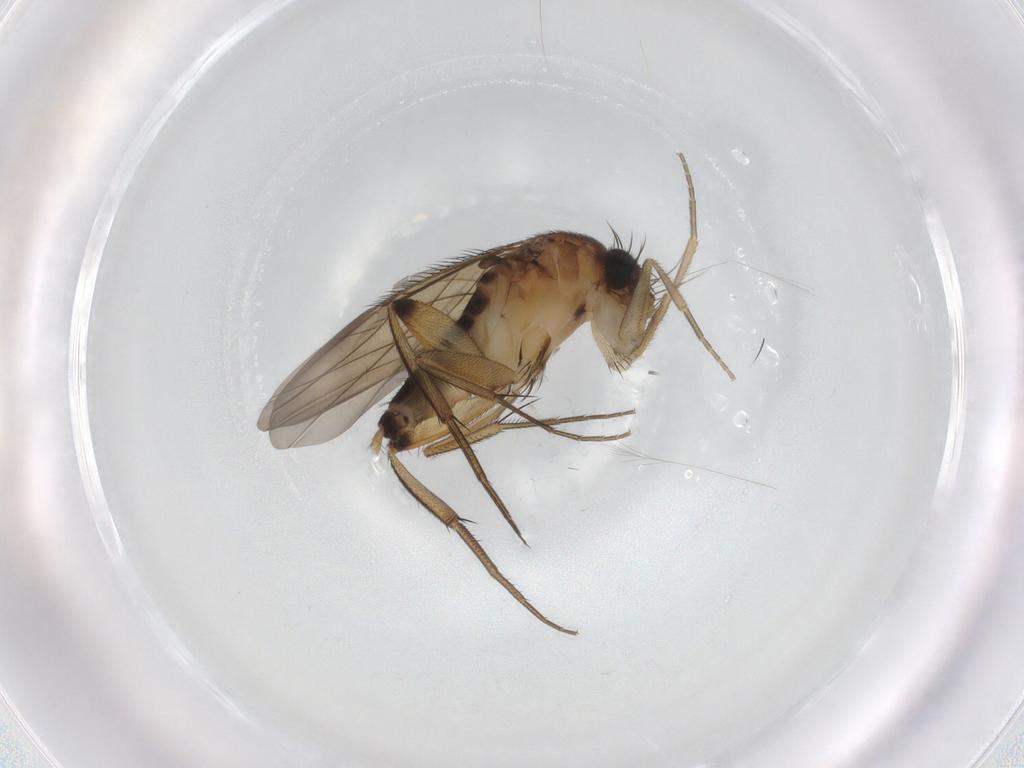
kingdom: Animalia
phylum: Arthropoda
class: Insecta
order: Diptera
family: Phoridae
